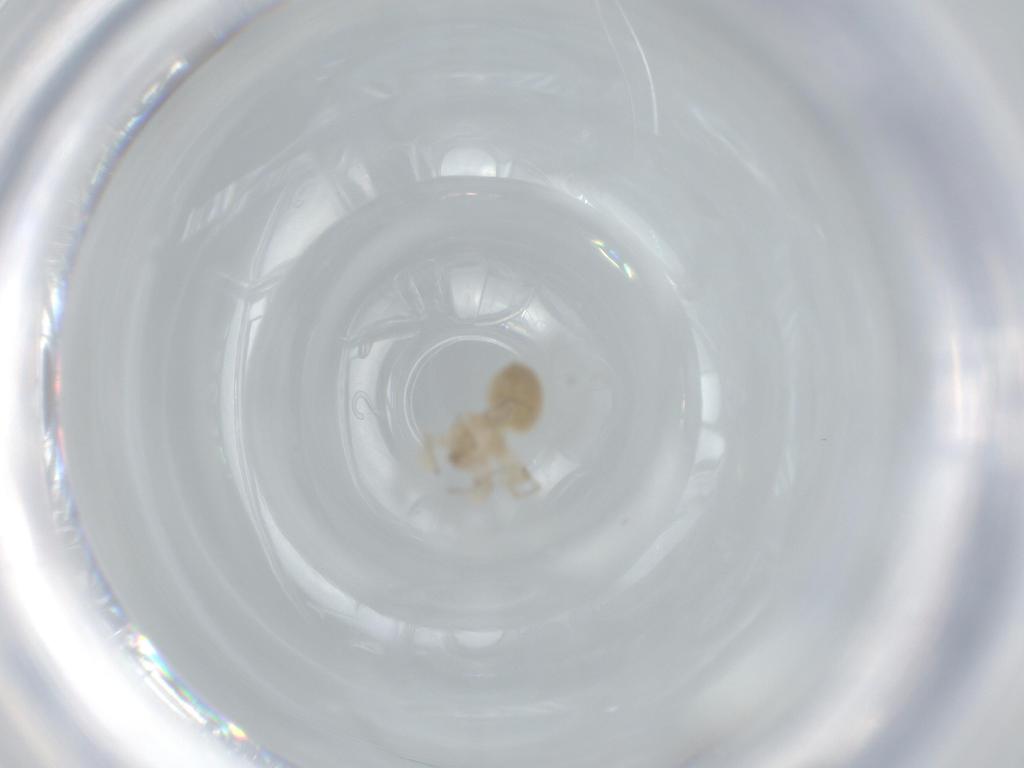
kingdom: Animalia
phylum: Arthropoda
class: Arachnida
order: Araneae
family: Oonopidae
